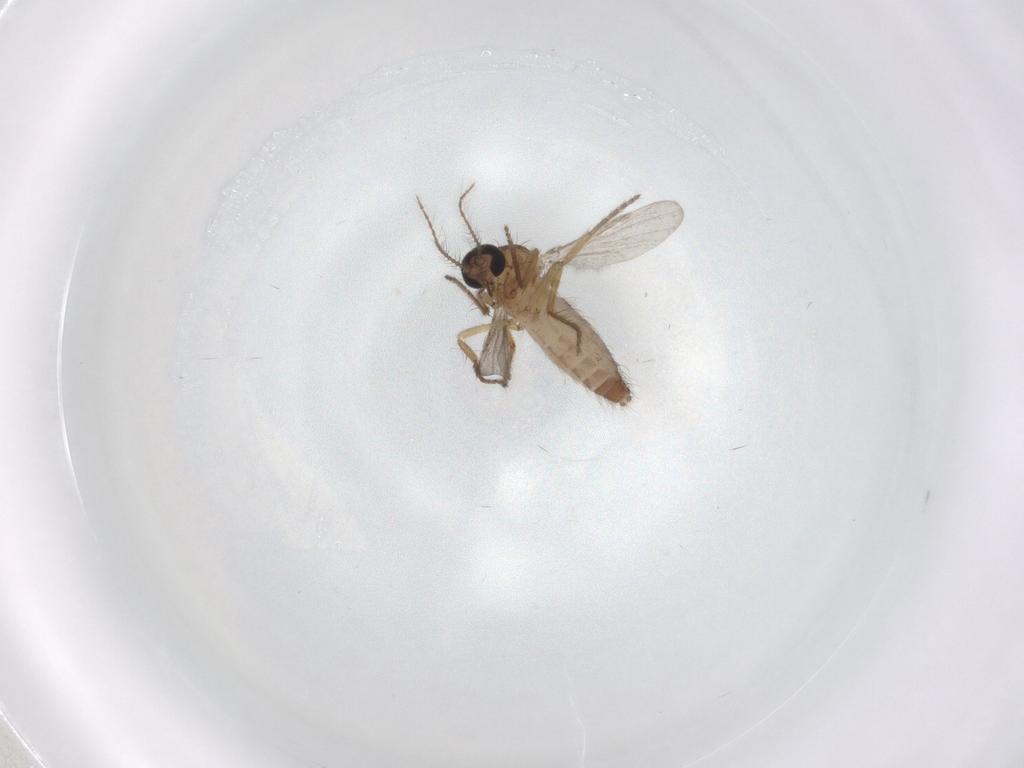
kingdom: Animalia
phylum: Arthropoda
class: Insecta
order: Diptera
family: Ceratopogonidae
